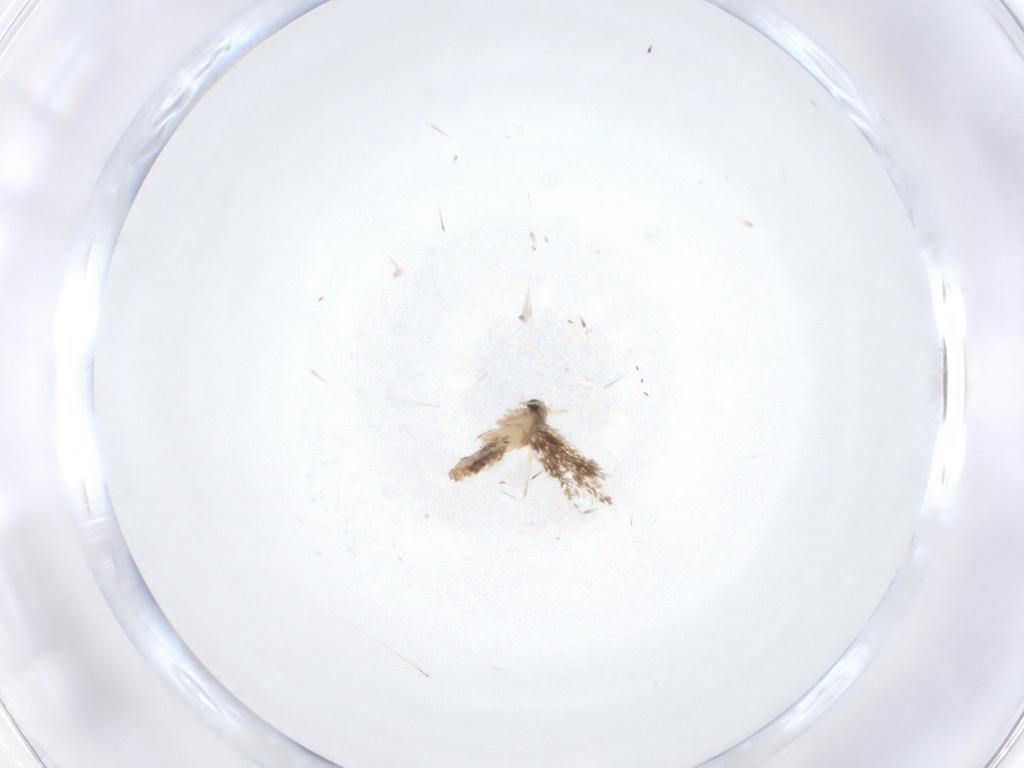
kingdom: Animalia
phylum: Arthropoda
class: Insecta
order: Lepidoptera
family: Nepticulidae
